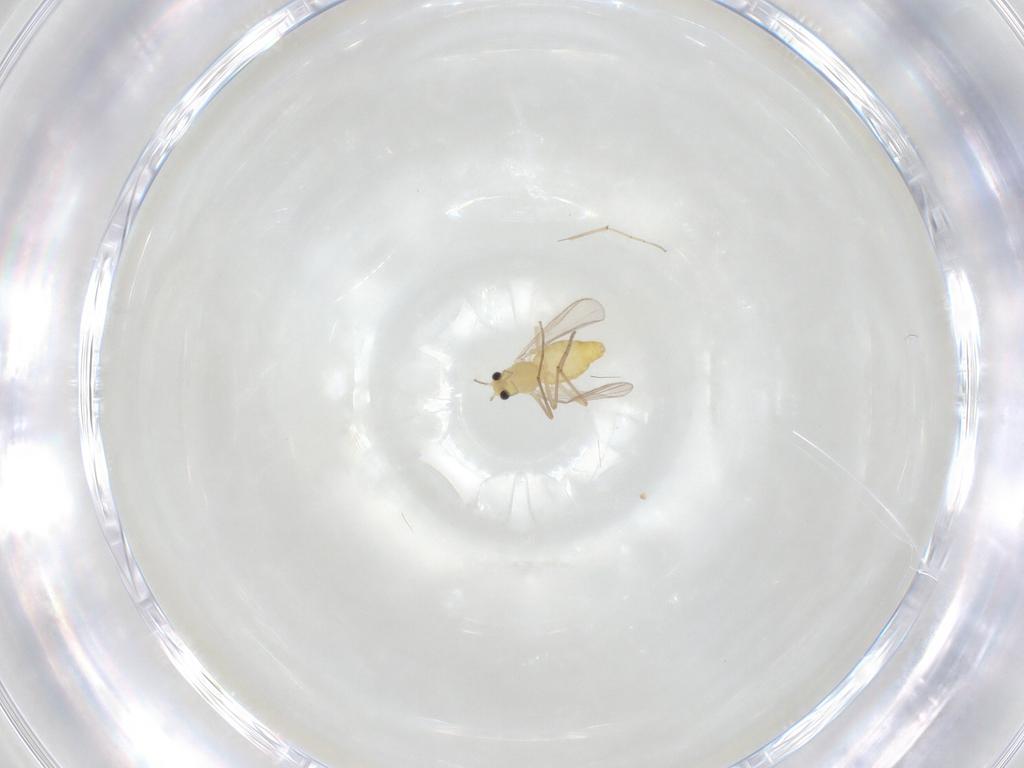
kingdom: Animalia
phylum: Arthropoda
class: Insecta
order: Diptera
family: Chironomidae
